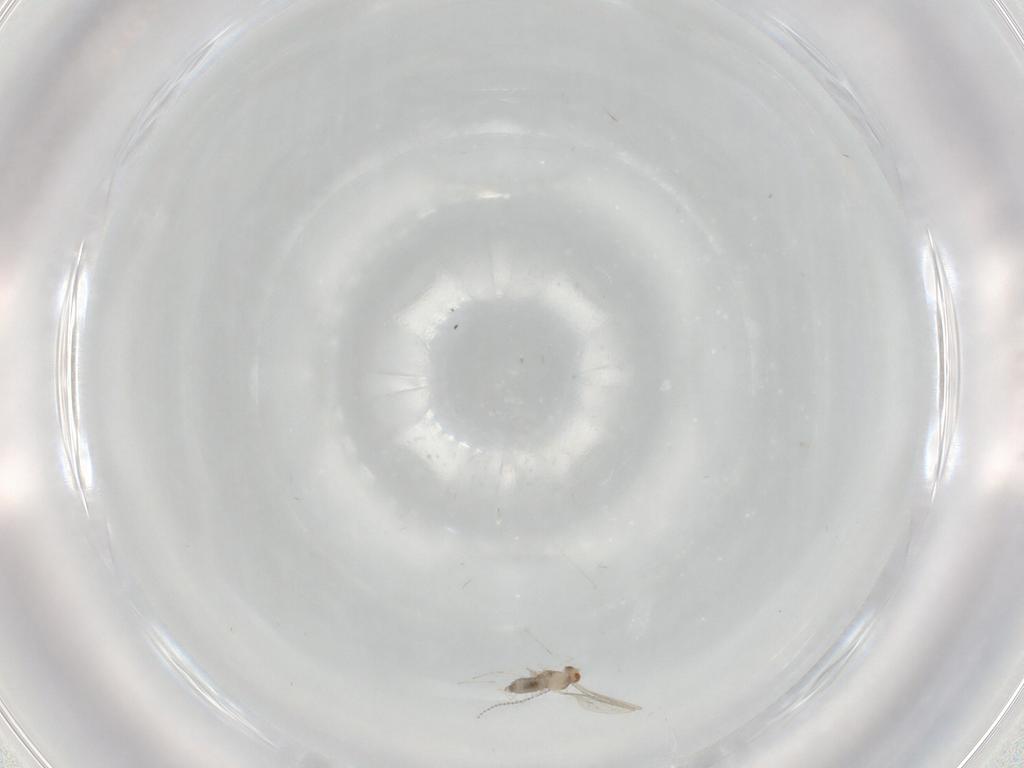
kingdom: Animalia
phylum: Arthropoda
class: Insecta
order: Diptera
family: Cecidomyiidae
